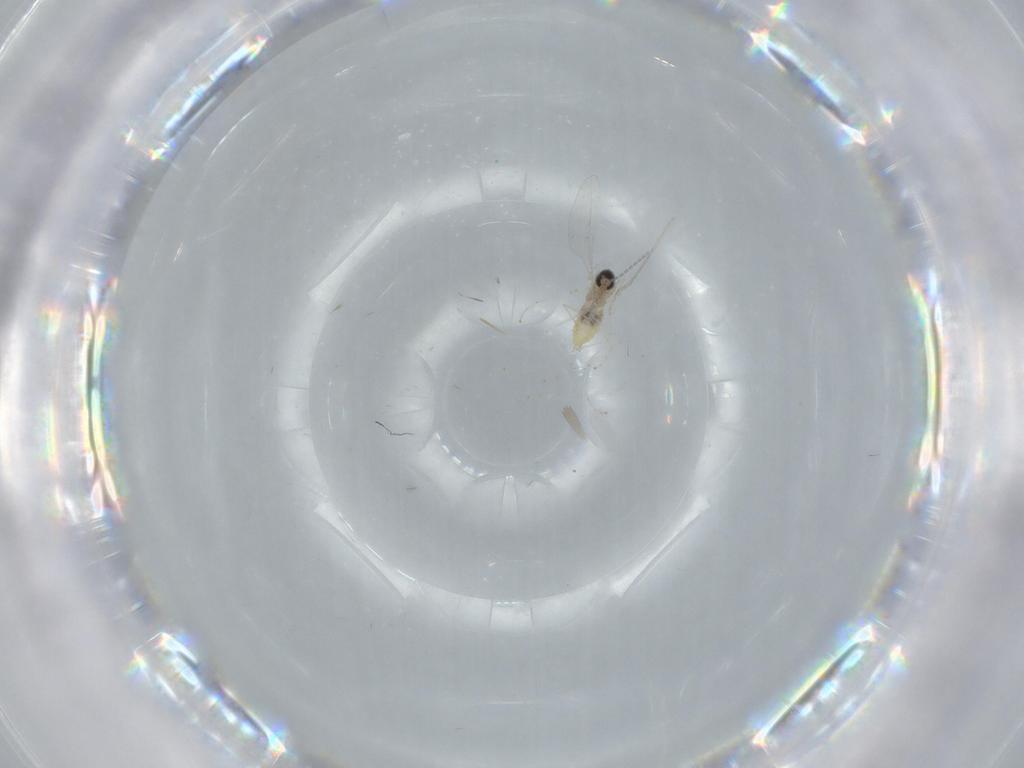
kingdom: Animalia
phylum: Arthropoda
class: Insecta
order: Diptera
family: Cecidomyiidae
